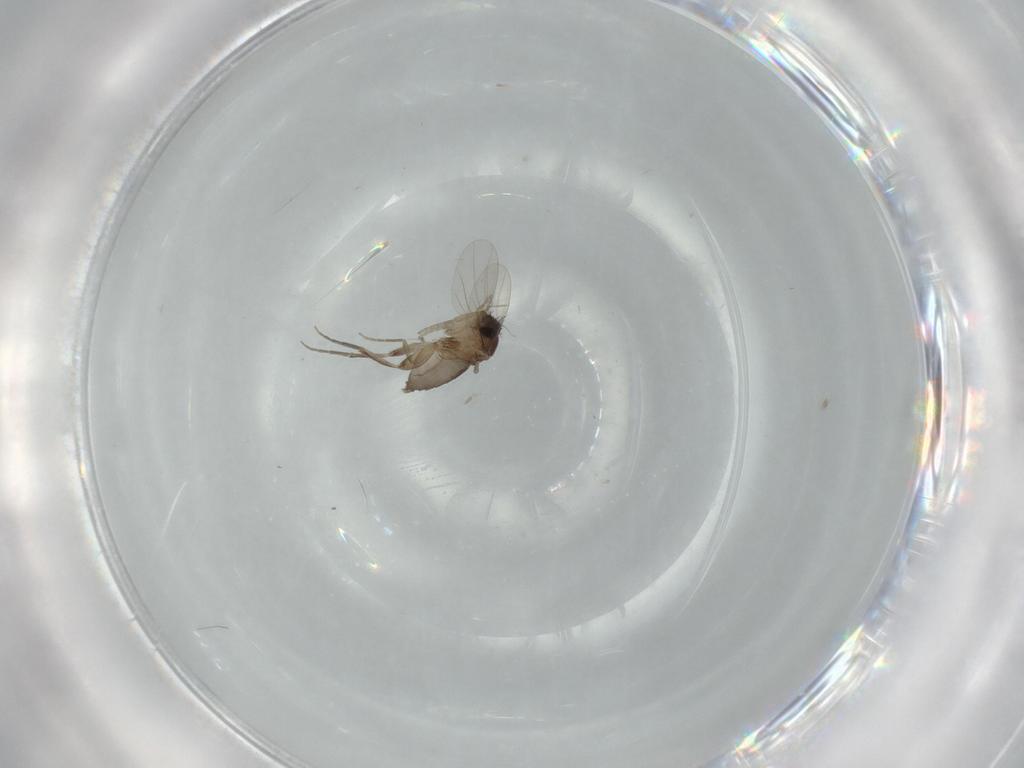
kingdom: Animalia
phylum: Arthropoda
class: Insecta
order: Diptera
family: Phoridae
